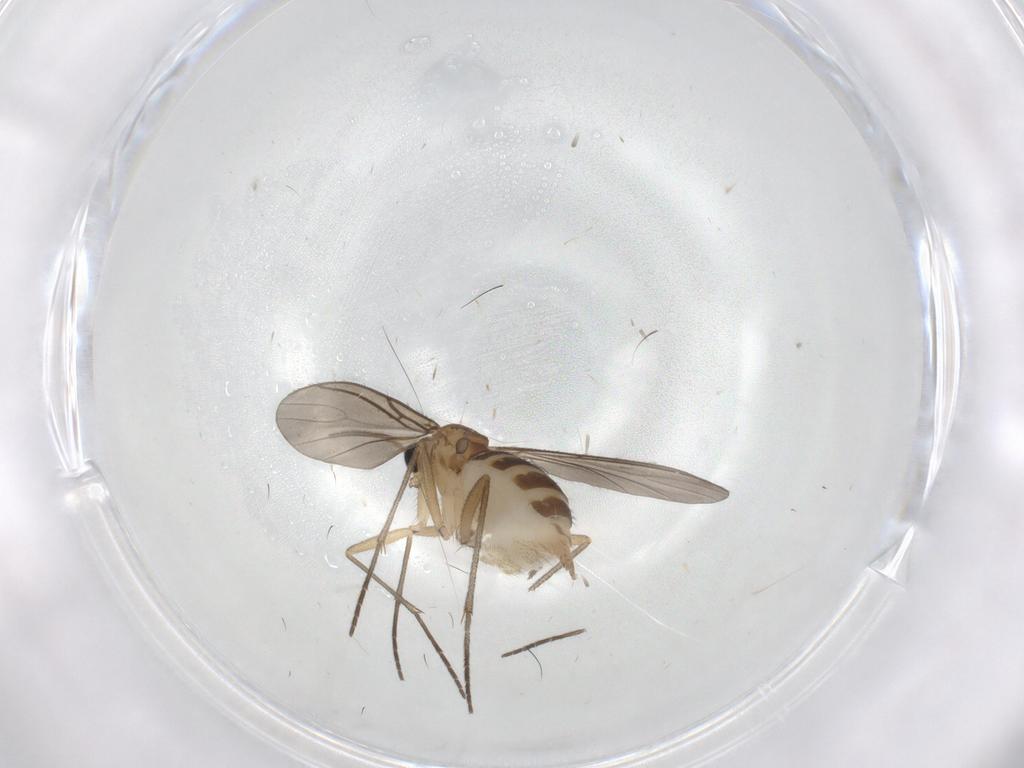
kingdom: Animalia
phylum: Arthropoda
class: Insecta
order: Diptera
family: Sciaridae
